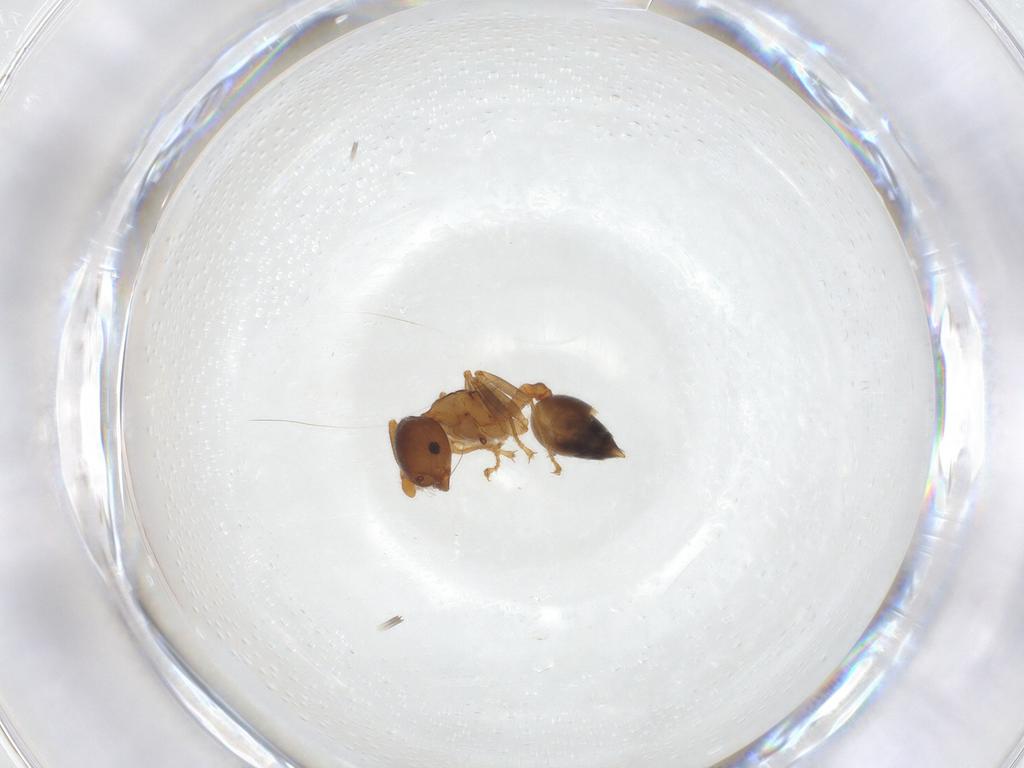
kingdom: Animalia
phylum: Arthropoda
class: Insecta
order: Hymenoptera
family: Formicidae
